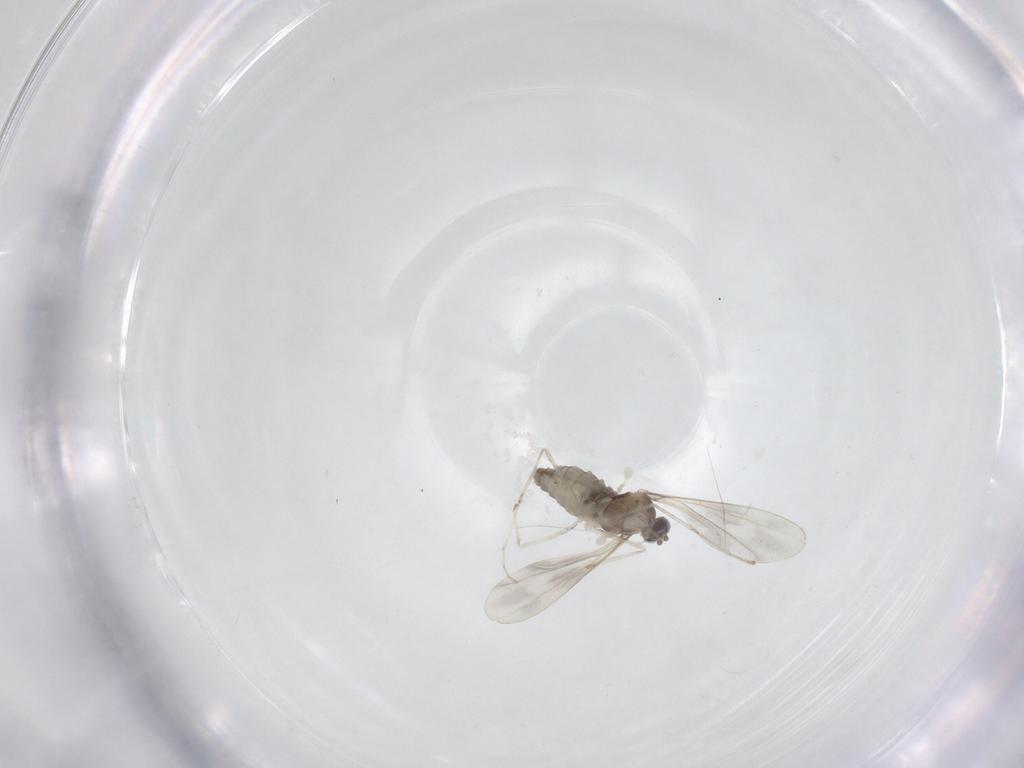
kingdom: Animalia
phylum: Arthropoda
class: Insecta
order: Diptera
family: Cecidomyiidae
